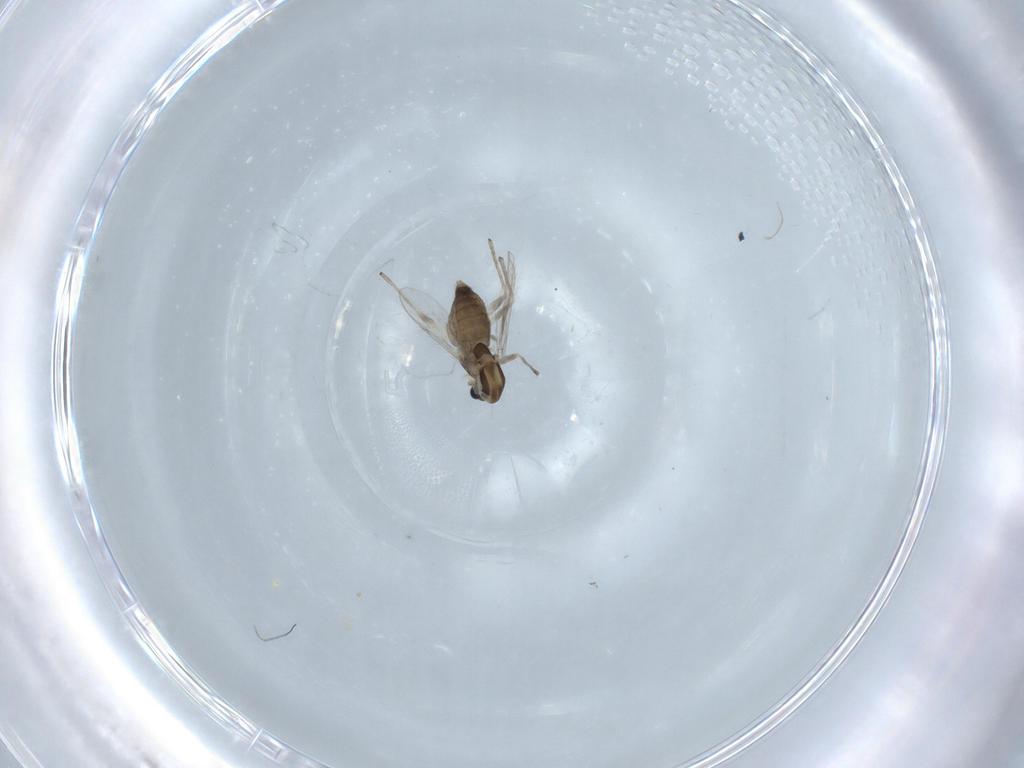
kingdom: Animalia
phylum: Arthropoda
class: Insecta
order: Diptera
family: Chironomidae
